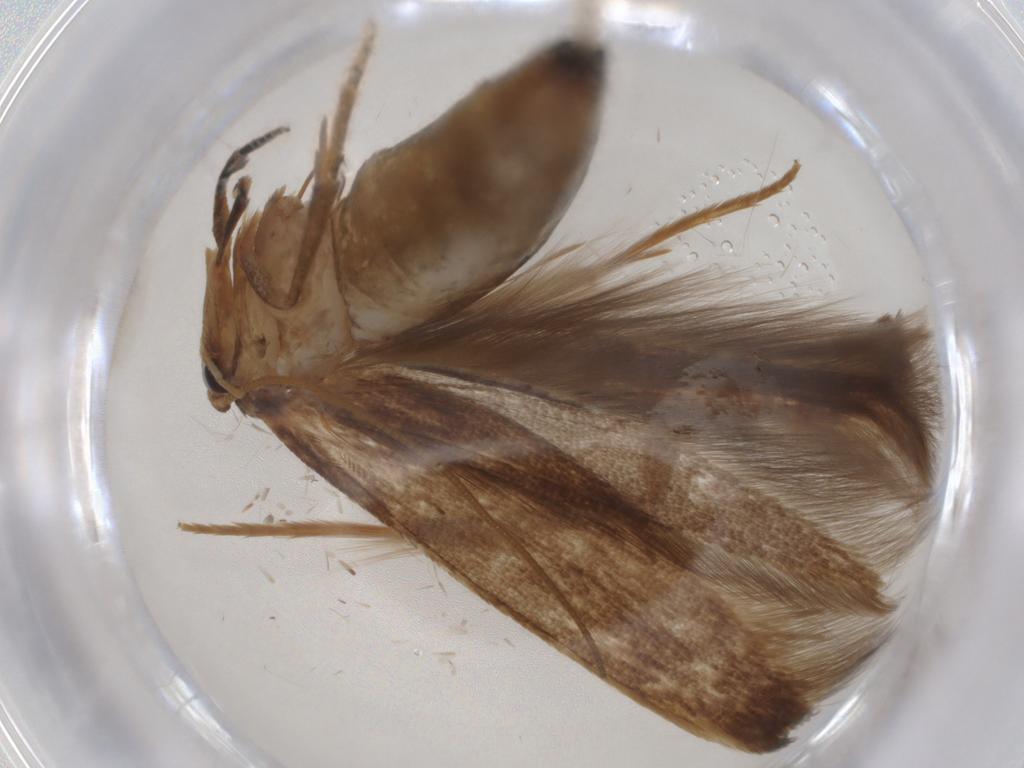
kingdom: Animalia
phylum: Arthropoda
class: Insecta
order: Lepidoptera
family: Tineidae
